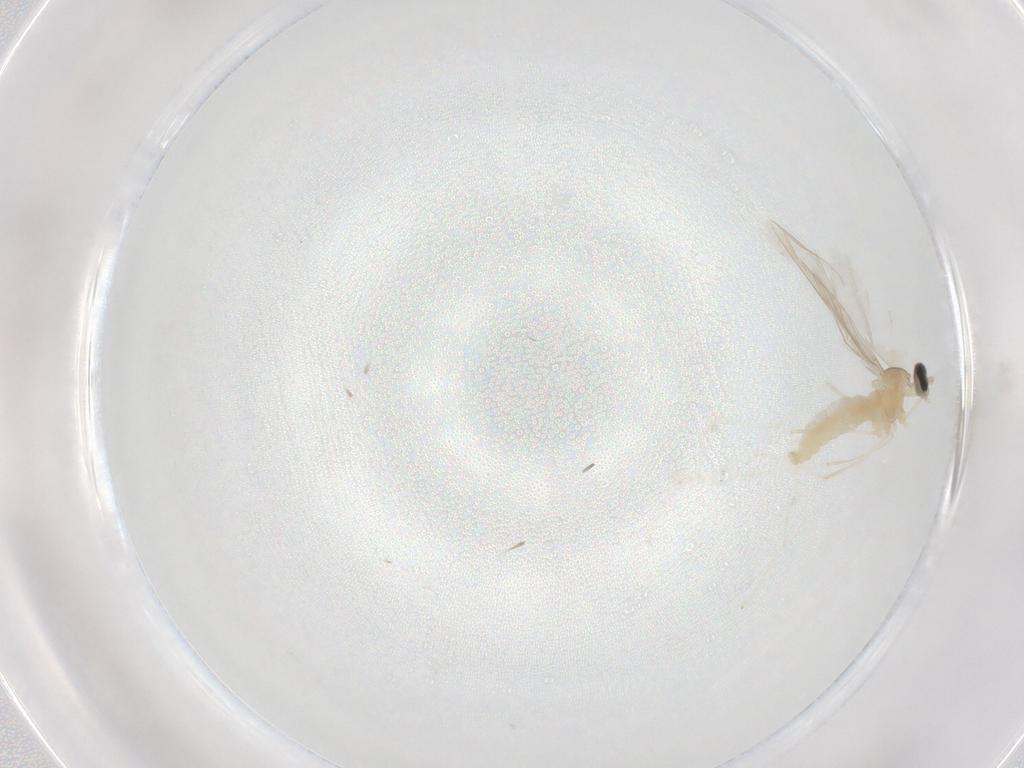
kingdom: Animalia
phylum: Arthropoda
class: Insecta
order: Diptera
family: Cecidomyiidae
